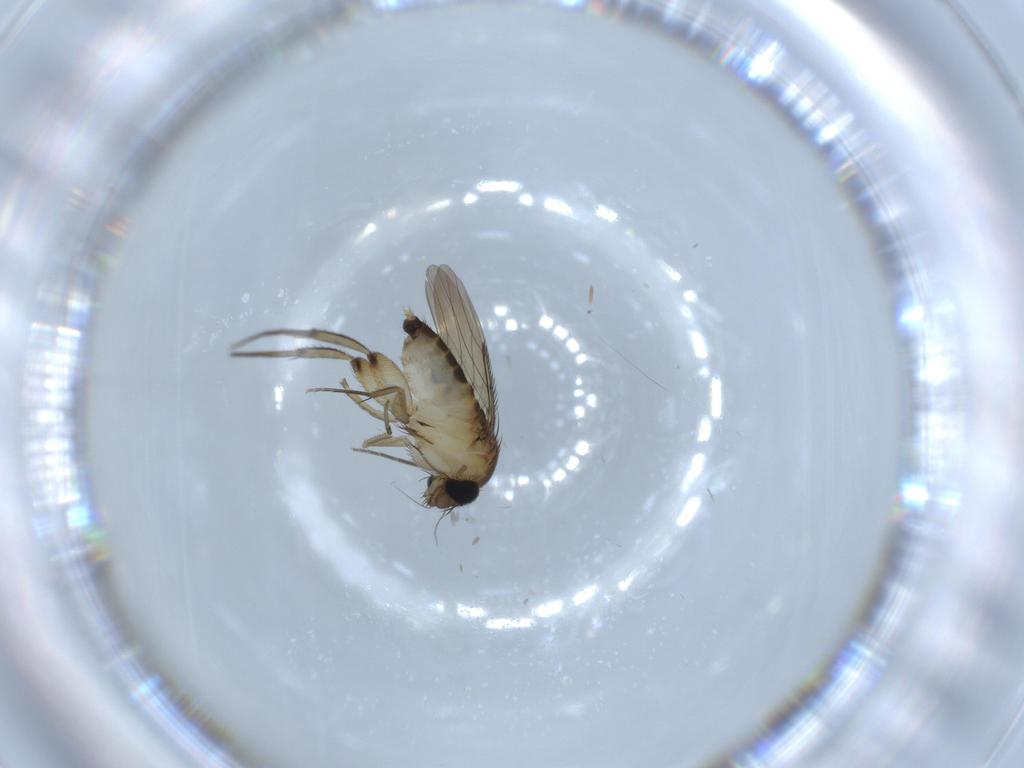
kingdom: Animalia
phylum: Arthropoda
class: Insecta
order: Diptera
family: Phoridae
